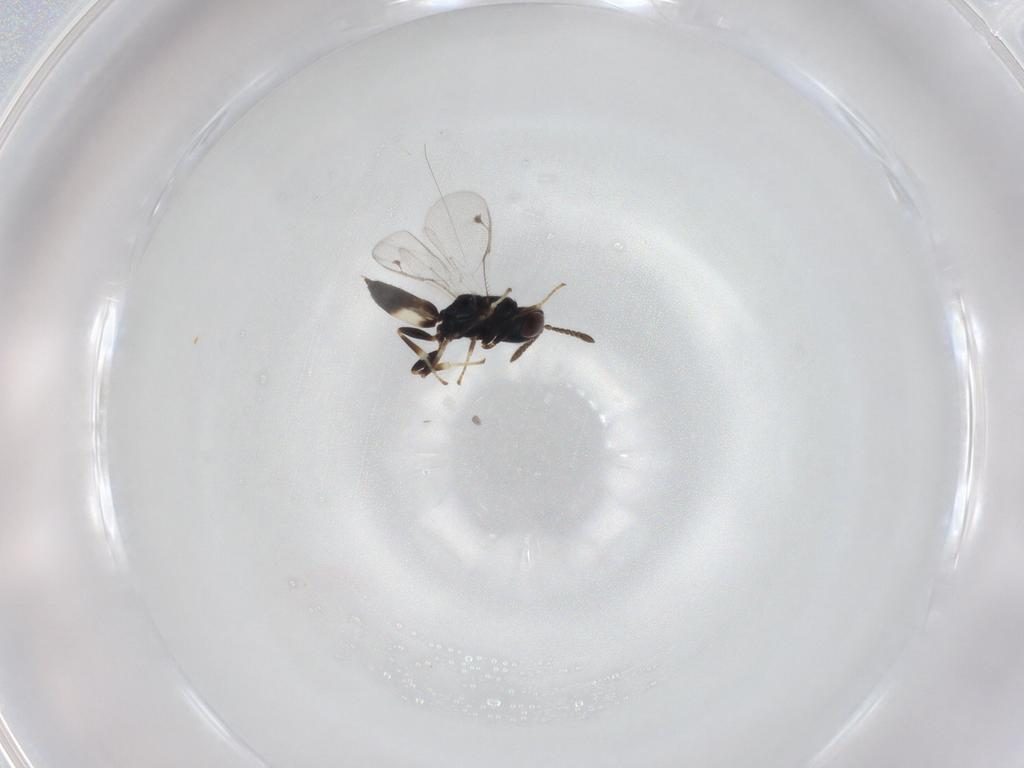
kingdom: Animalia
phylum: Arthropoda
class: Insecta
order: Hymenoptera
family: Pteromalidae
